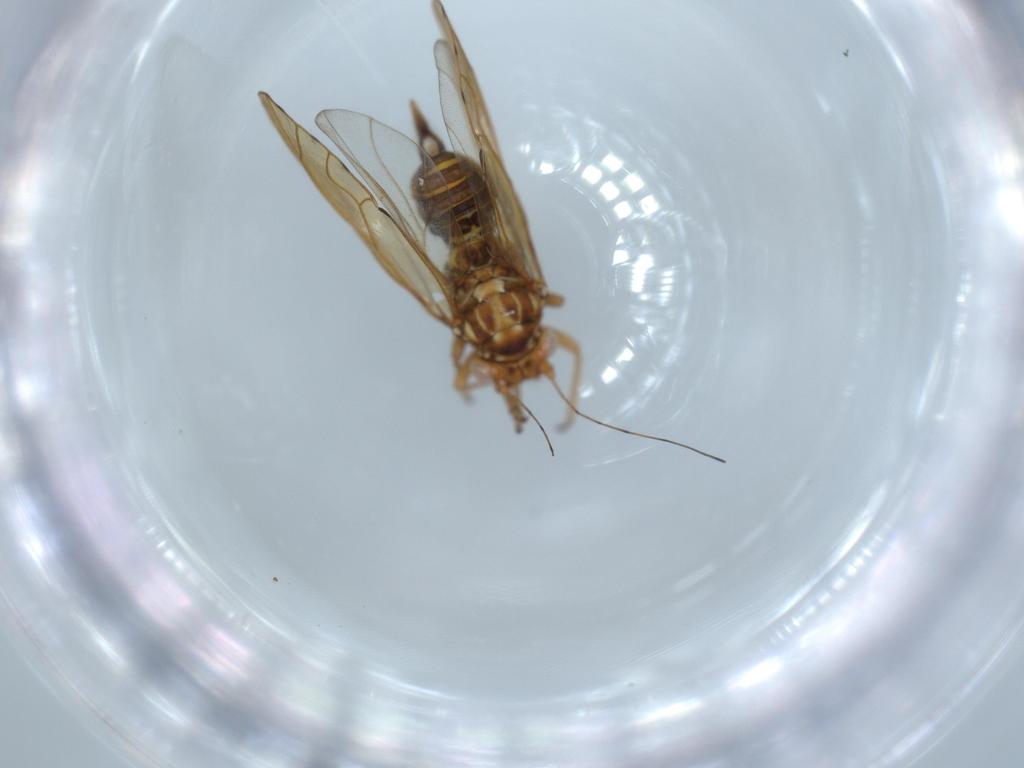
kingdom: Animalia
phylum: Arthropoda
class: Insecta
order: Hemiptera
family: Psylloidea_incertae_sedis
